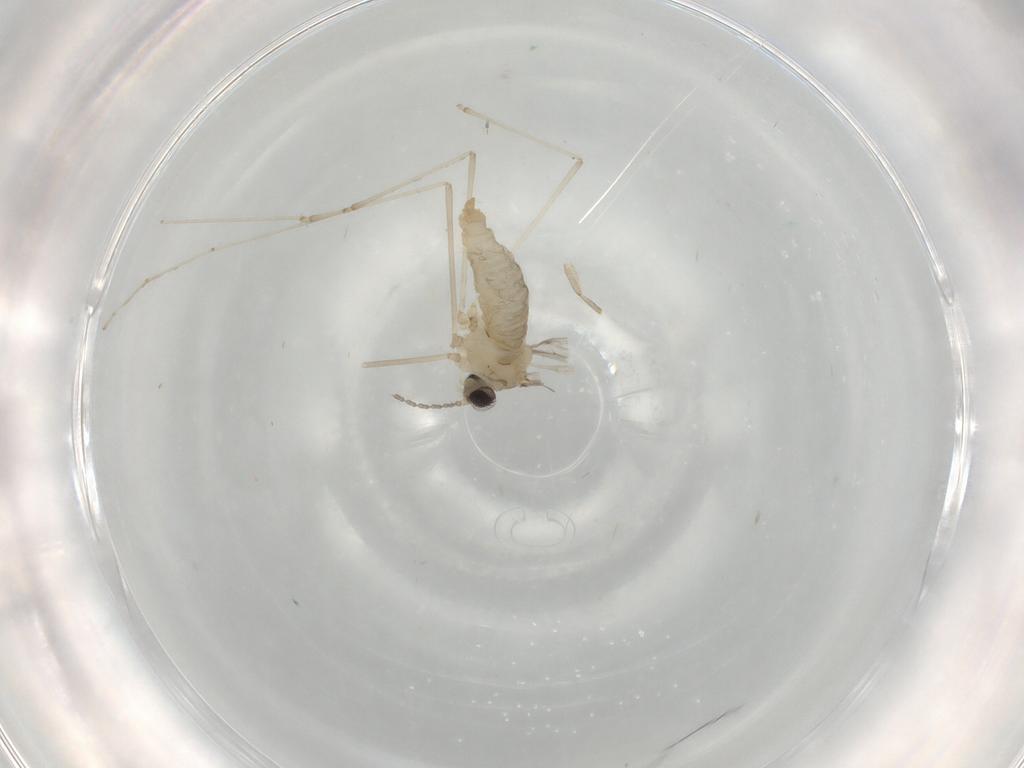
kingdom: Animalia
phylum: Arthropoda
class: Insecta
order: Diptera
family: Cecidomyiidae
